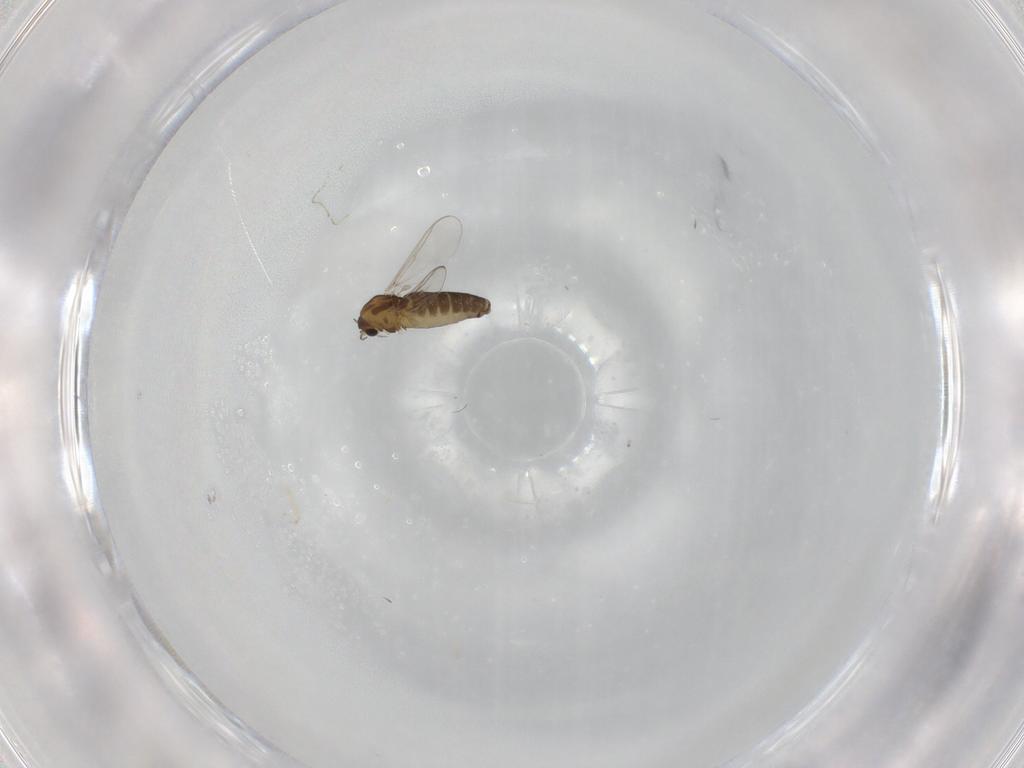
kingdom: Animalia
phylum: Arthropoda
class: Insecta
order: Diptera
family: Chironomidae
